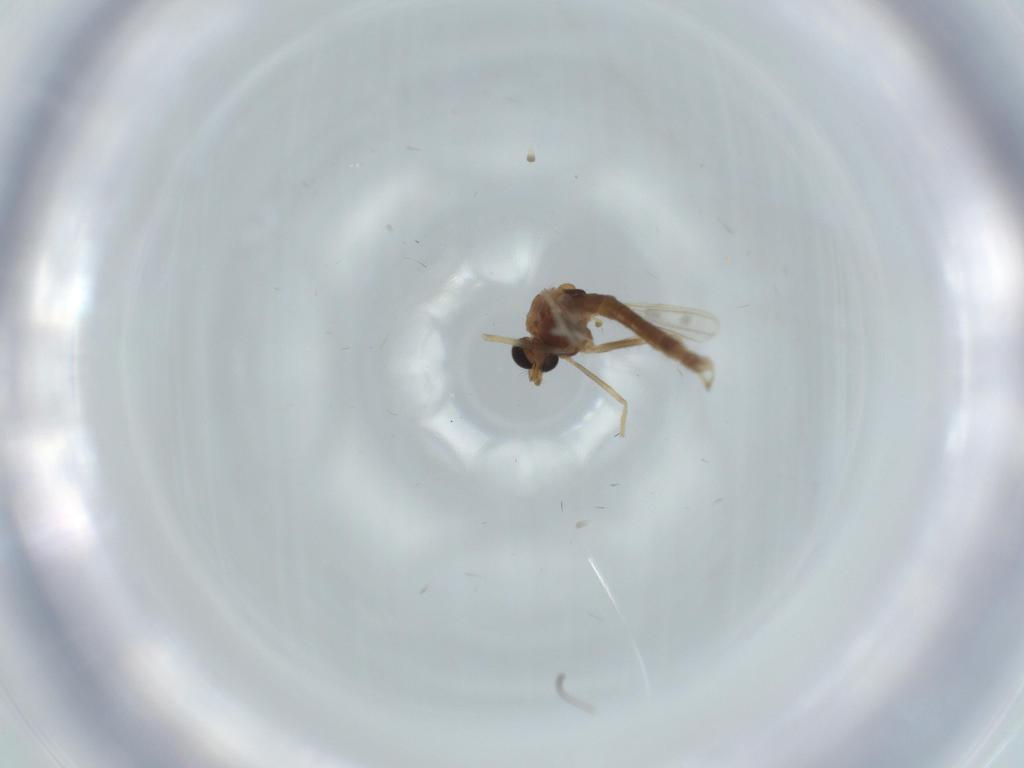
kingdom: Animalia
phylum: Arthropoda
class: Insecta
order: Diptera
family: Chironomidae
